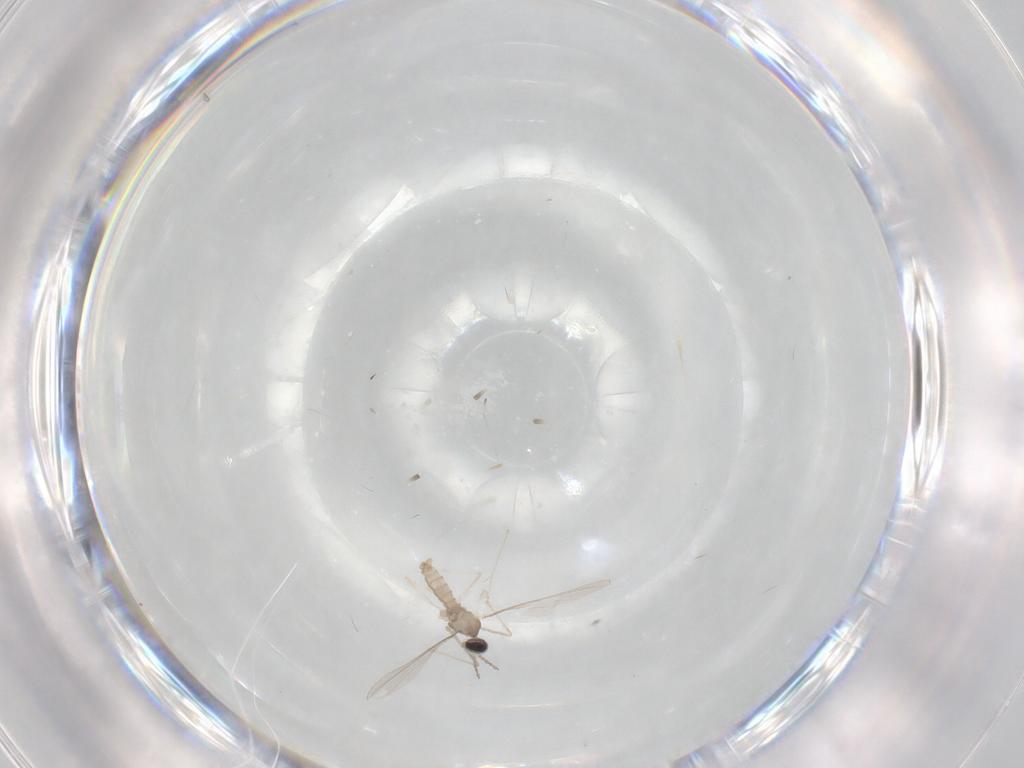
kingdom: Animalia
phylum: Arthropoda
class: Insecta
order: Diptera
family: Cecidomyiidae
